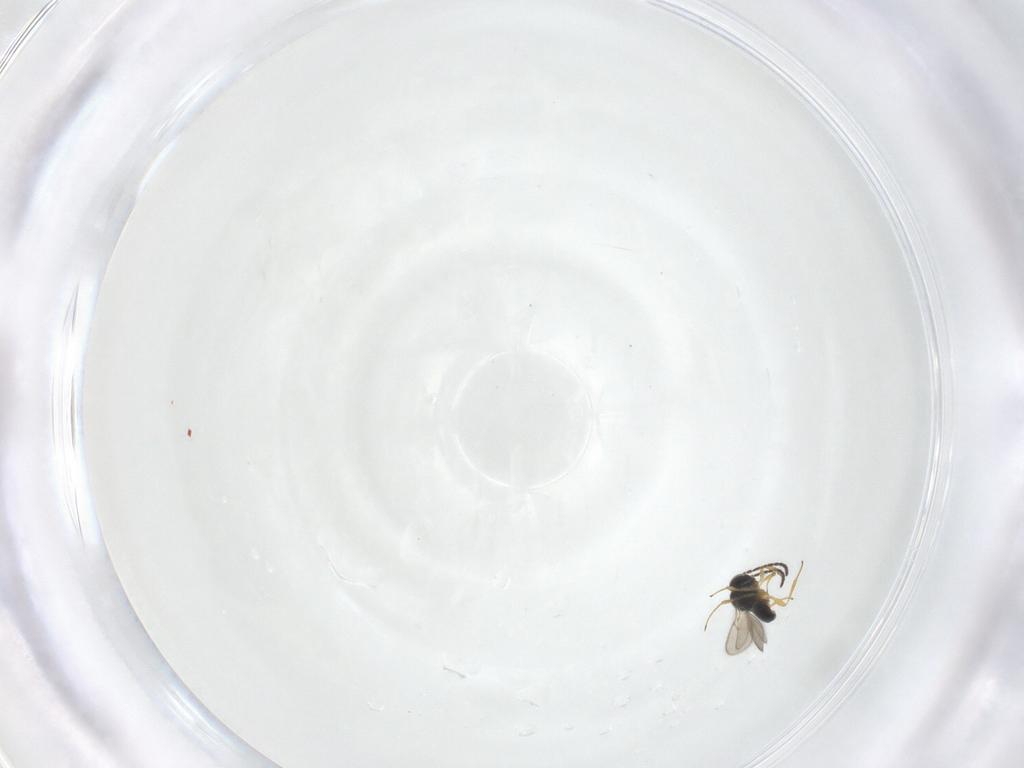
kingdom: Animalia
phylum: Arthropoda
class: Insecta
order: Hymenoptera
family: Scelionidae
